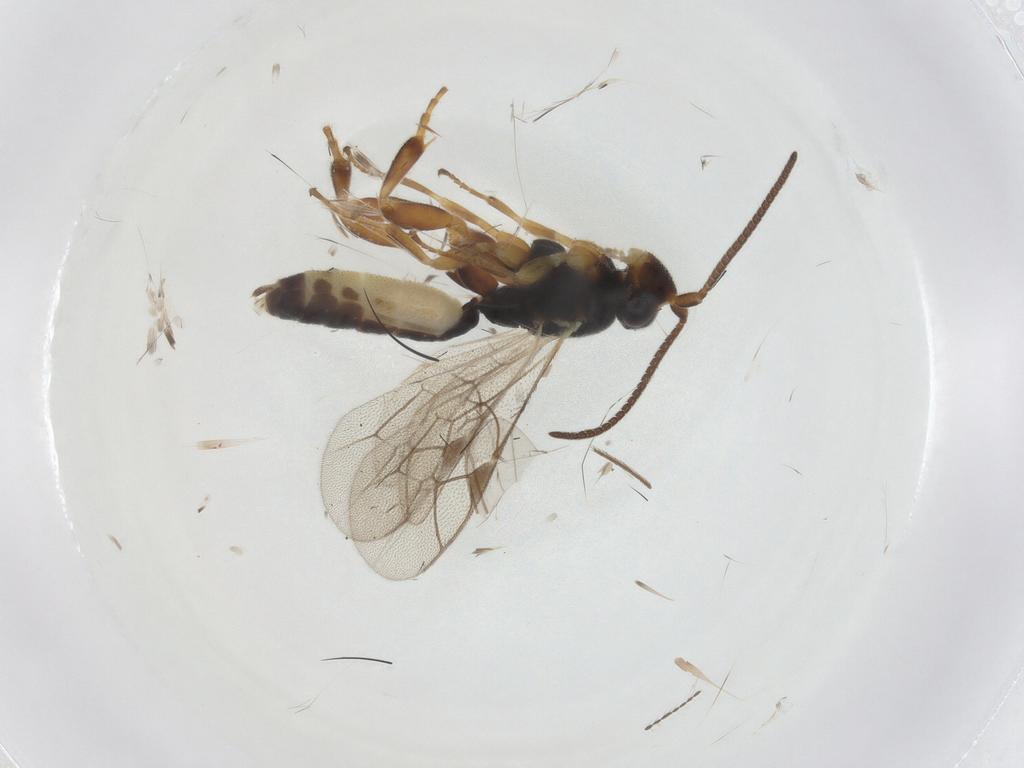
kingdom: Animalia
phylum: Arthropoda
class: Insecta
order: Hymenoptera
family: Ichneumonidae
